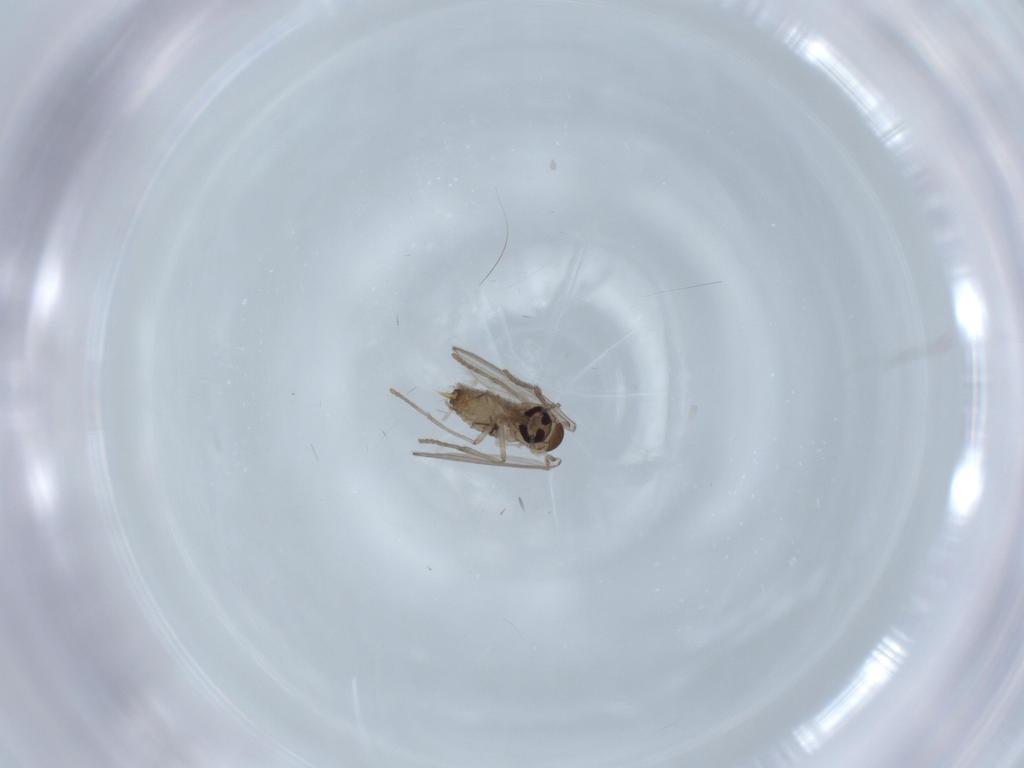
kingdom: Animalia
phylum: Arthropoda
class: Insecta
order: Diptera
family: Psychodidae
